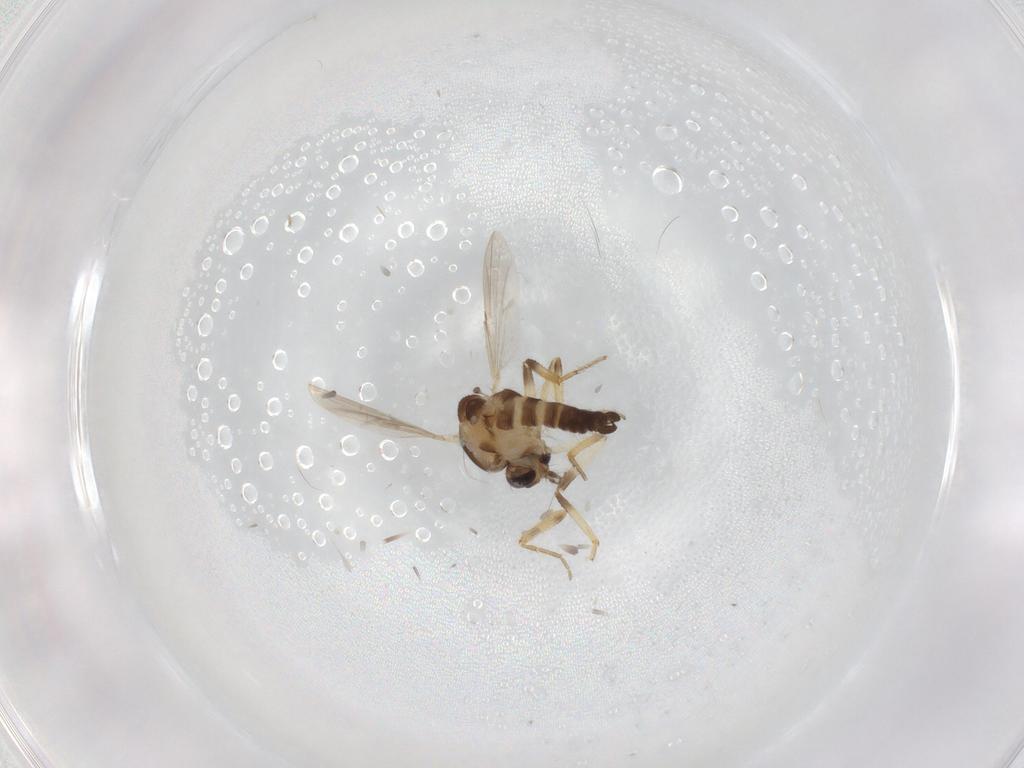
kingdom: Animalia
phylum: Arthropoda
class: Insecta
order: Diptera
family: Ceratopogonidae
